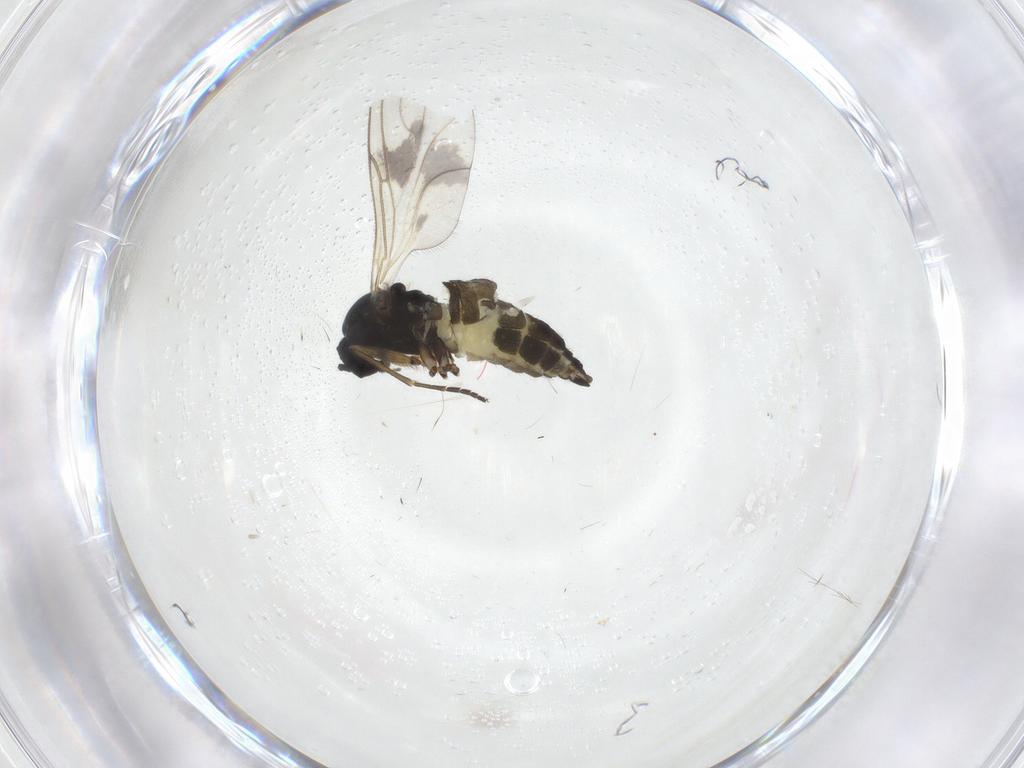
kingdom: Animalia
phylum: Arthropoda
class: Insecta
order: Diptera
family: Sciaridae
